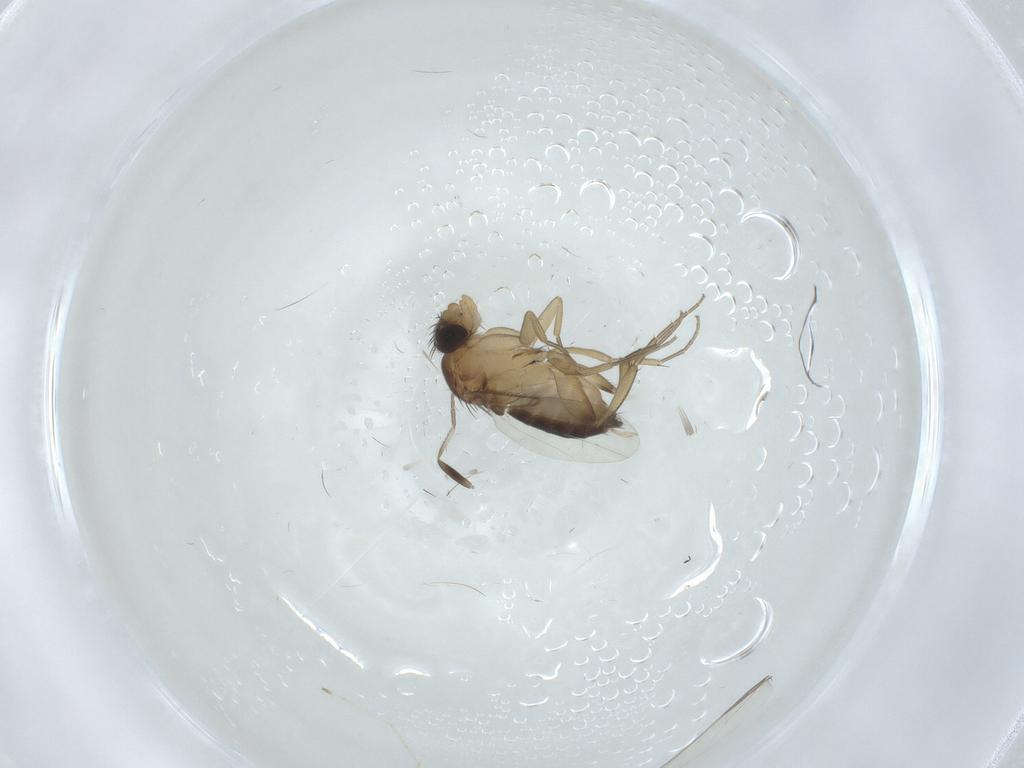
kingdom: Animalia
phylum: Arthropoda
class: Insecta
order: Diptera
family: Phoridae
